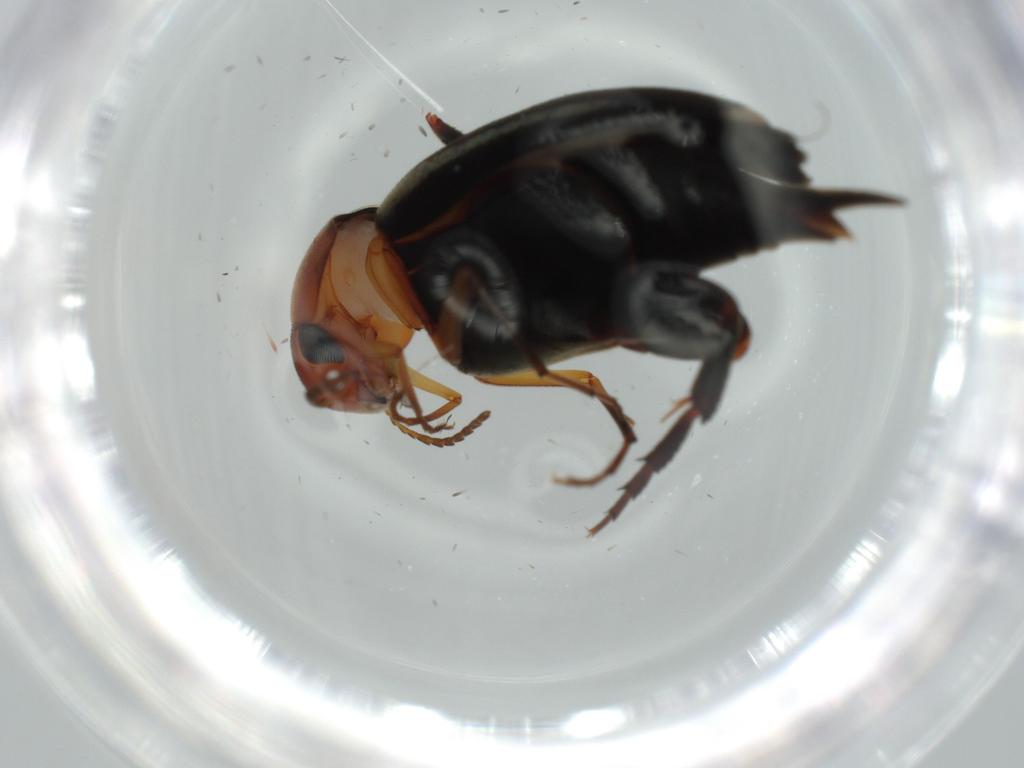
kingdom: Animalia
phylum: Arthropoda
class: Insecta
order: Coleoptera
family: Mordellidae
